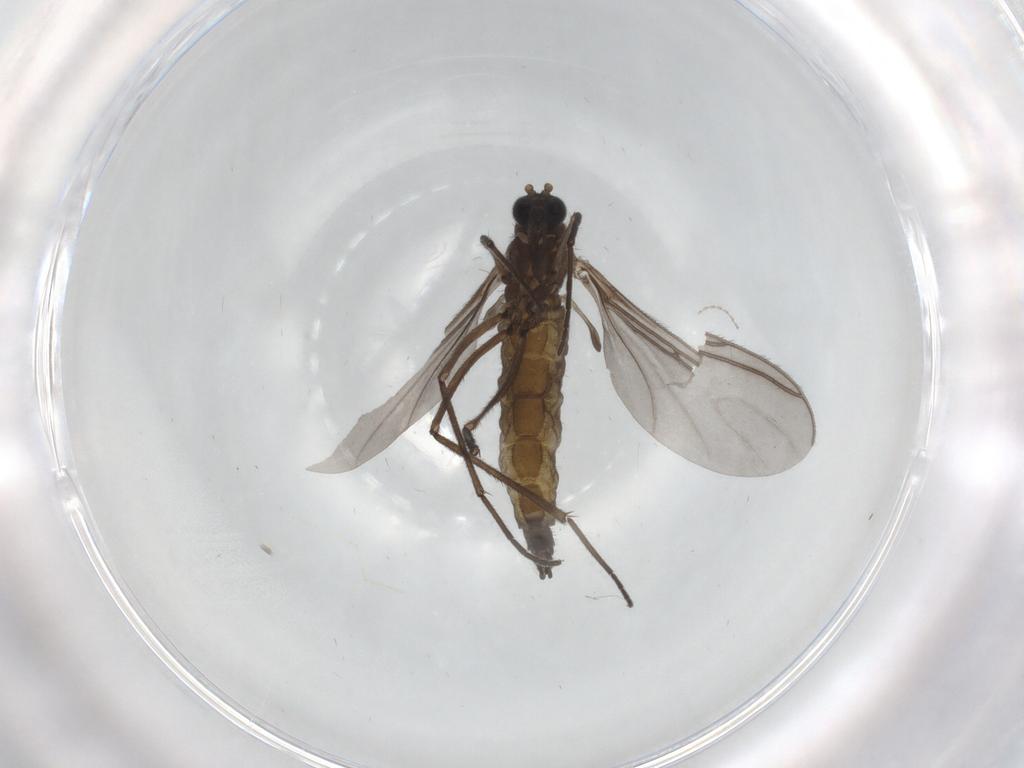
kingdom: Animalia
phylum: Arthropoda
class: Insecta
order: Diptera
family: Sciaridae
